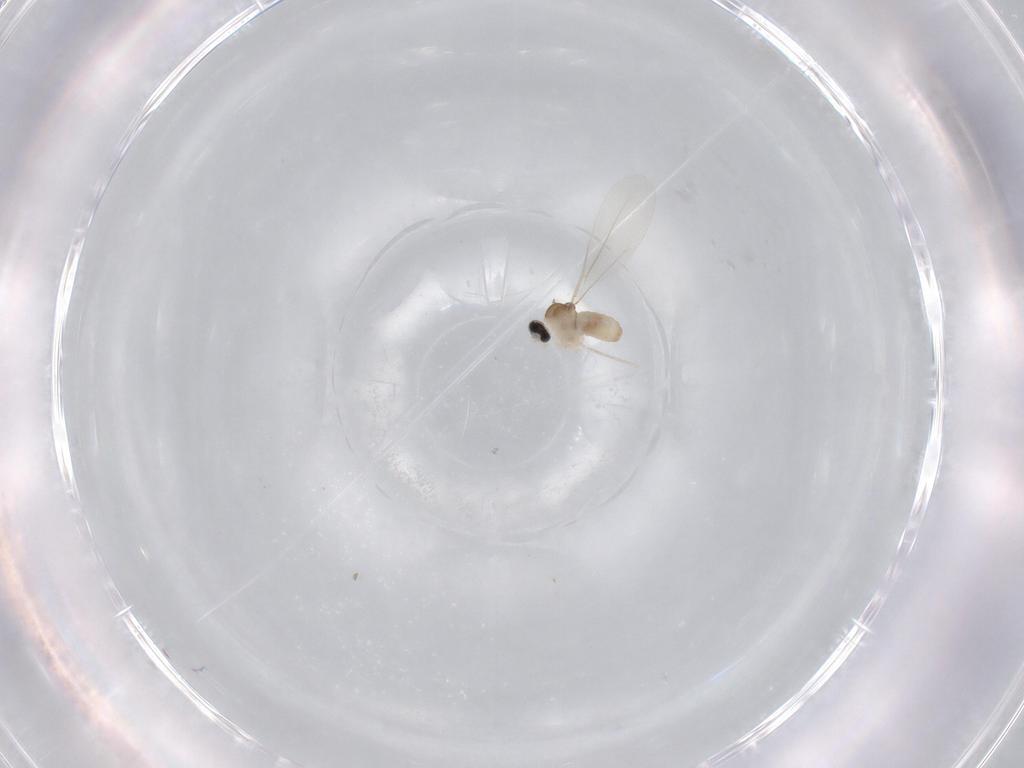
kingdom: Animalia
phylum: Arthropoda
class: Insecta
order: Diptera
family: Cecidomyiidae
